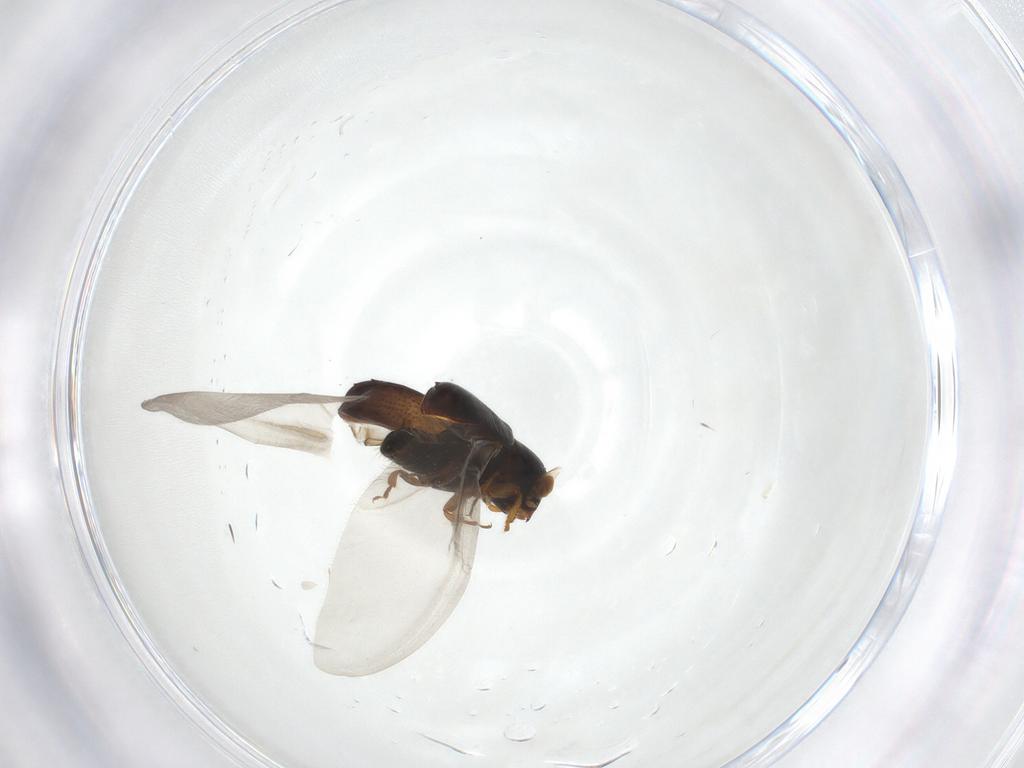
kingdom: Animalia
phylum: Arthropoda
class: Insecta
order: Coleoptera
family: Curculionidae
